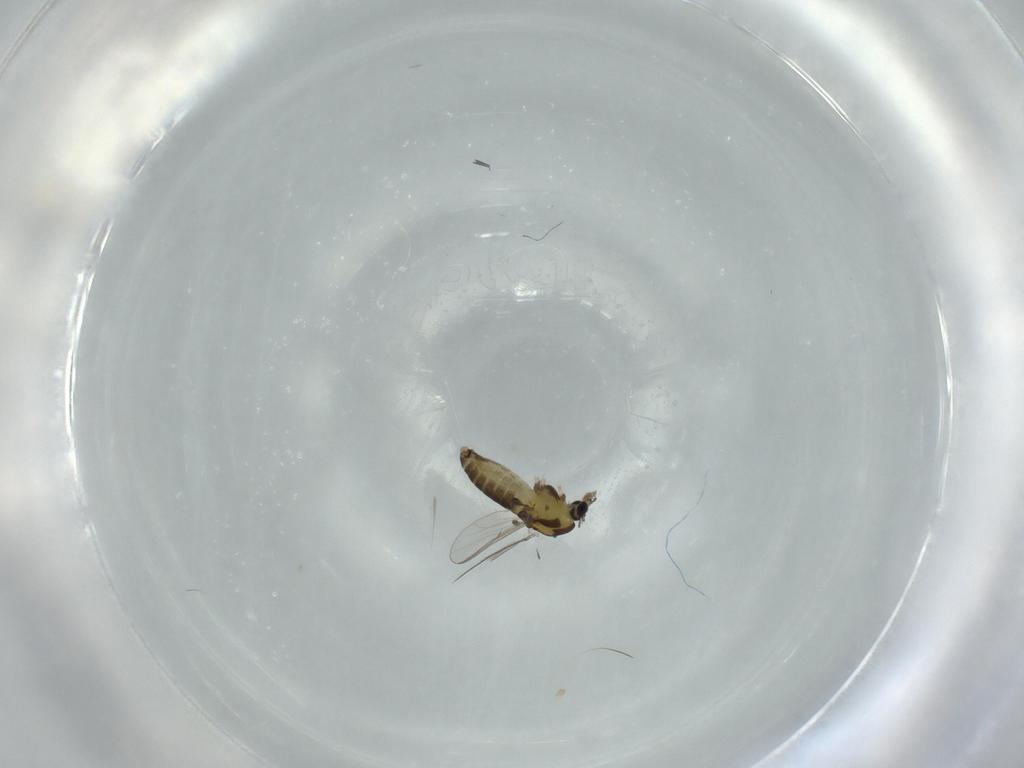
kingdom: Animalia
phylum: Arthropoda
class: Insecta
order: Diptera
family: Chironomidae
